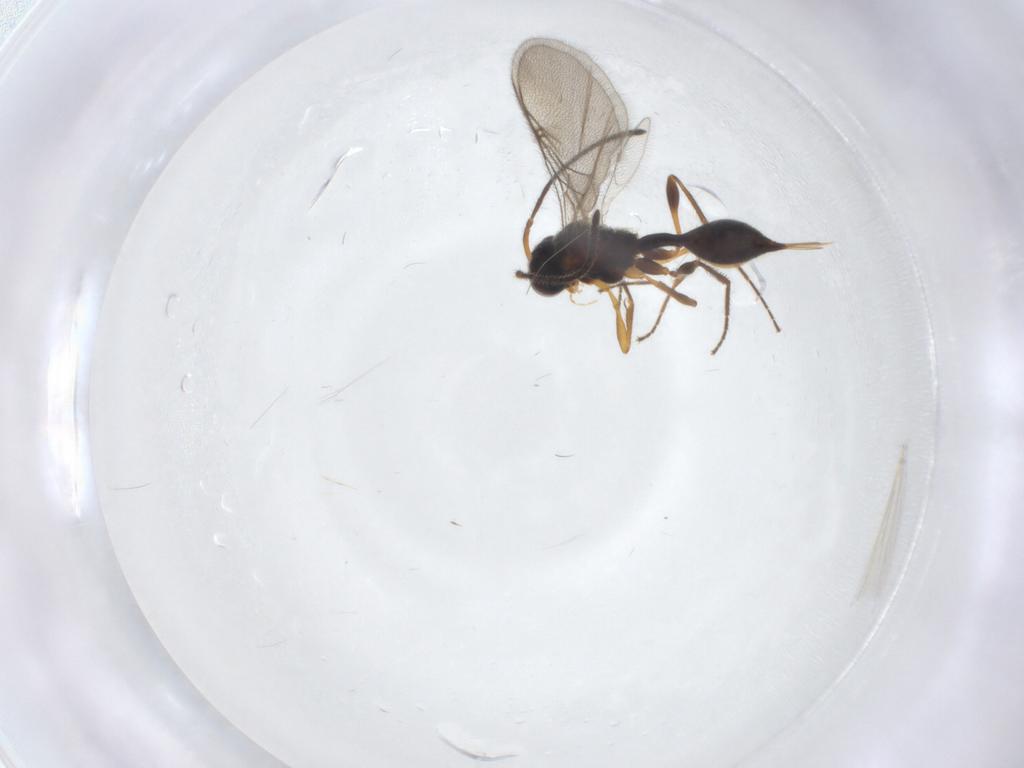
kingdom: Animalia
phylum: Arthropoda
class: Insecta
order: Hymenoptera
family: Diapriidae
